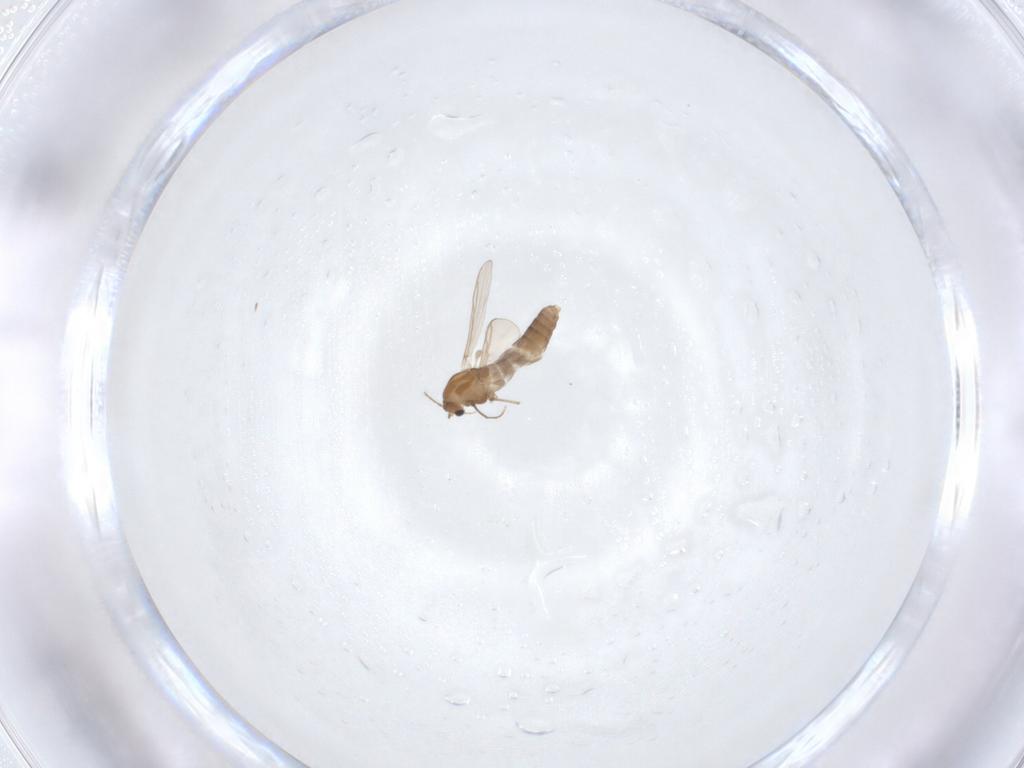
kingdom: Animalia
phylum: Arthropoda
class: Insecta
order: Diptera
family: Chironomidae
